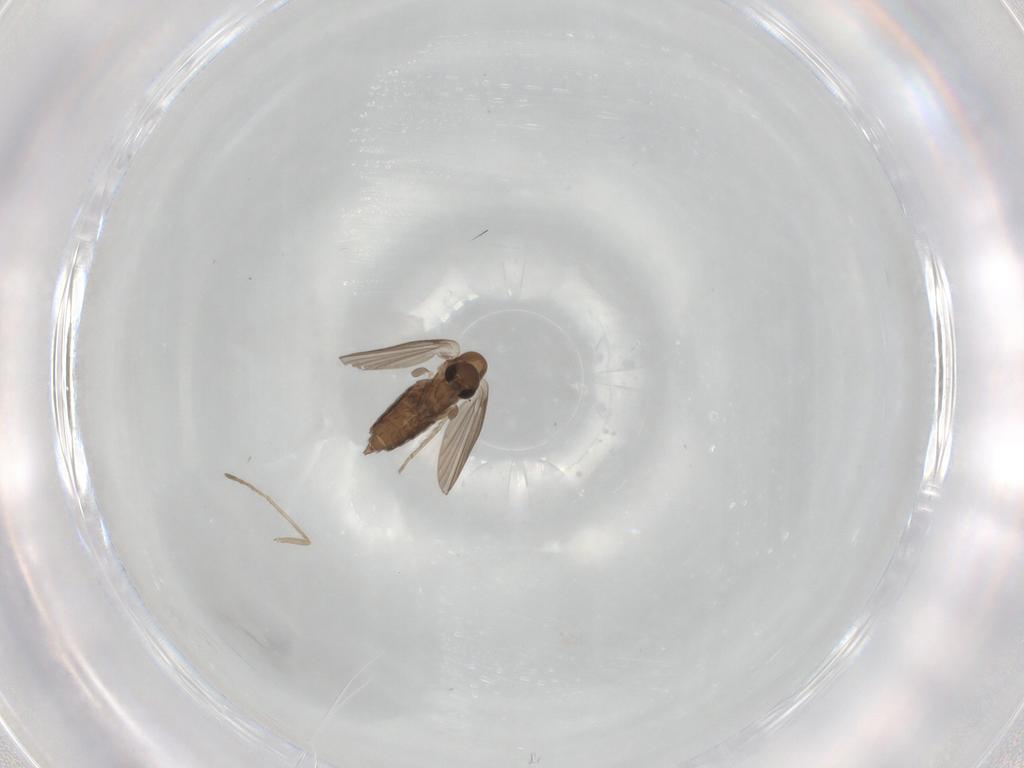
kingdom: Animalia
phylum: Arthropoda
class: Insecta
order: Diptera
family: Cecidomyiidae
